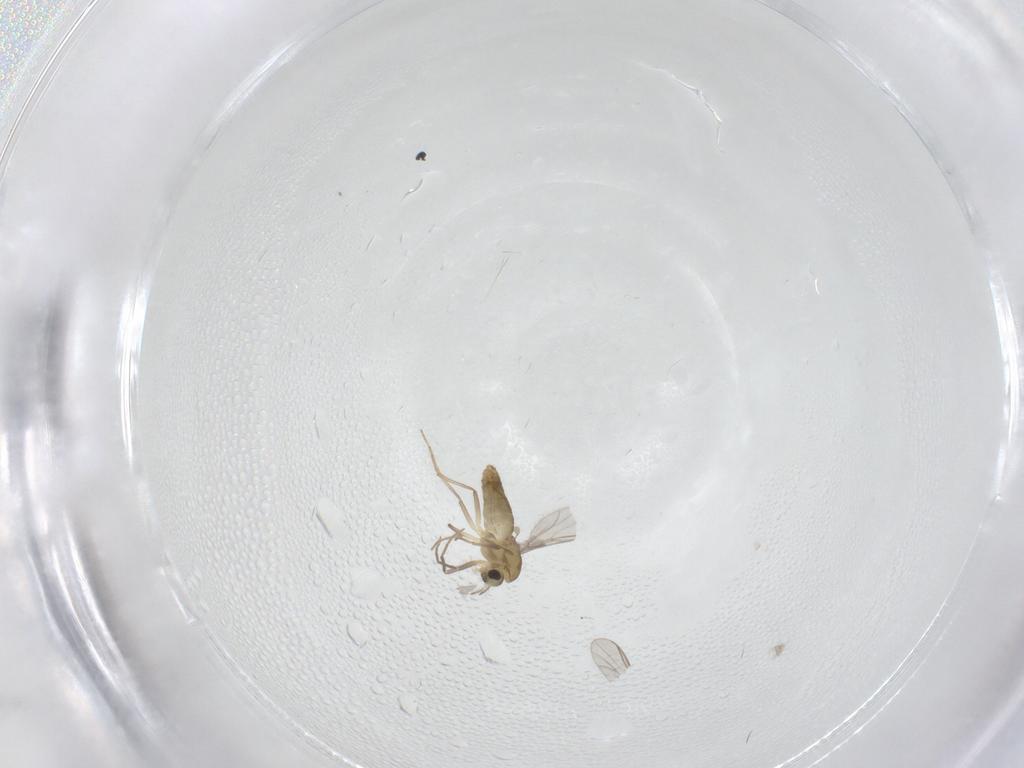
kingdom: Animalia
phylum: Arthropoda
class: Insecta
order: Diptera
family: Chironomidae
